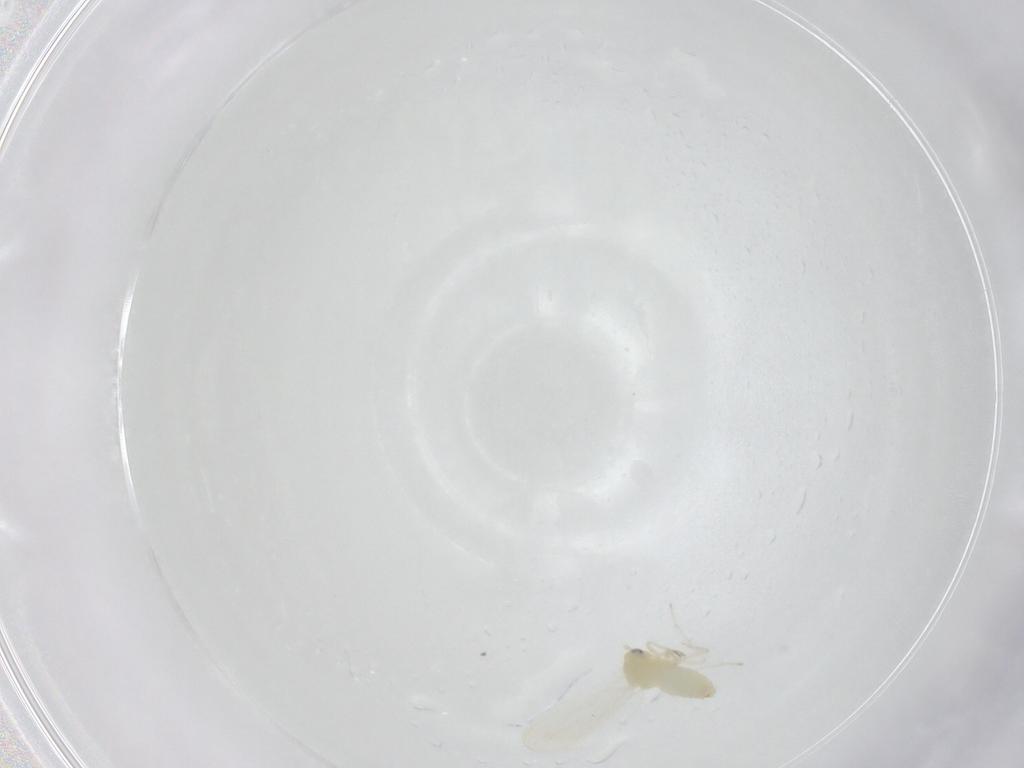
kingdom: Animalia
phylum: Arthropoda
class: Insecta
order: Hemiptera
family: Aleyrodidae
